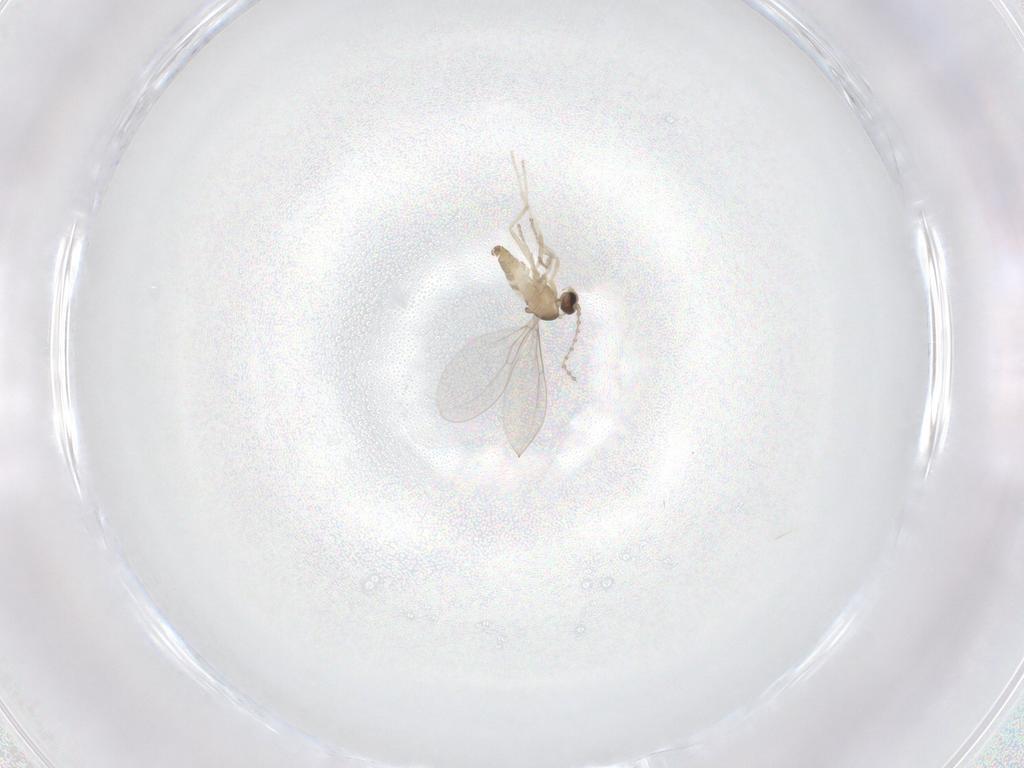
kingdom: Animalia
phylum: Arthropoda
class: Insecta
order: Diptera
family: Cecidomyiidae
